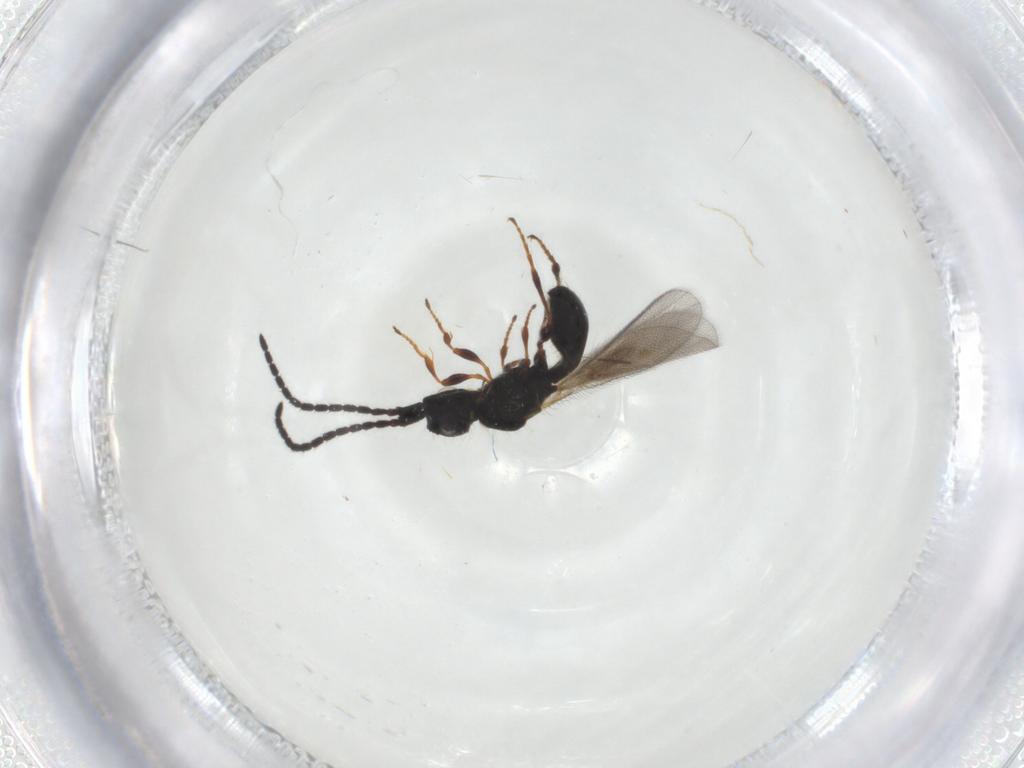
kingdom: Animalia
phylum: Arthropoda
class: Insecta
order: Hymenoptera
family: Diapriidae
